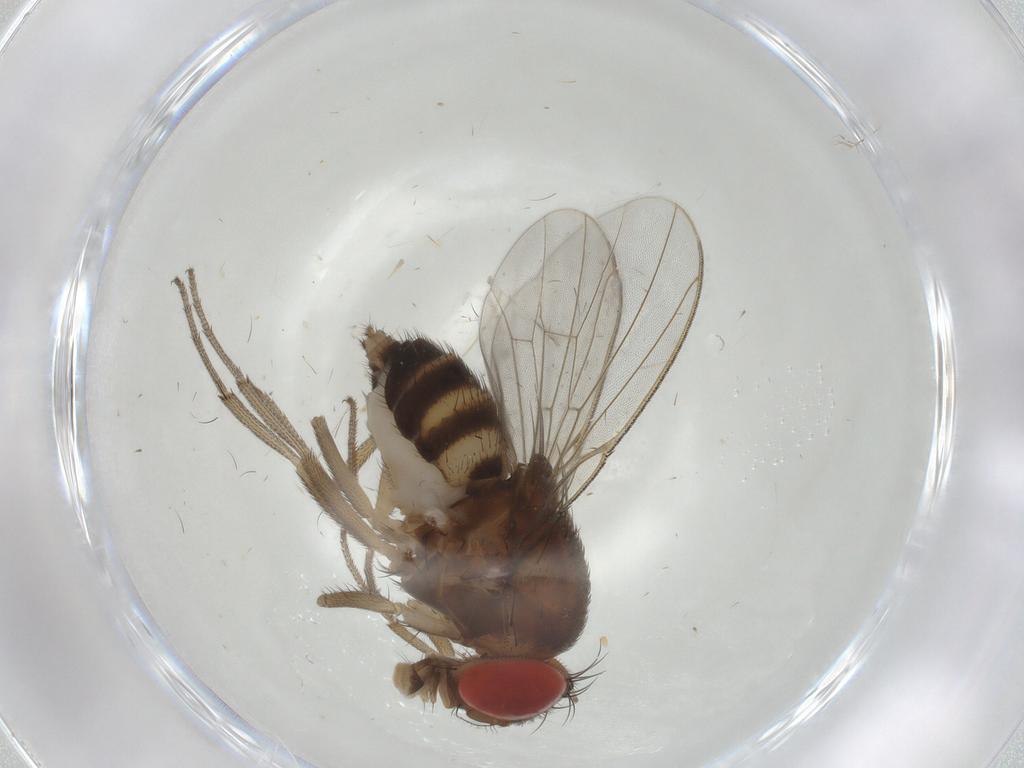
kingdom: Animalia
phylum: Arthropoda
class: Insecta
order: Diptera
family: Drosophilidae
